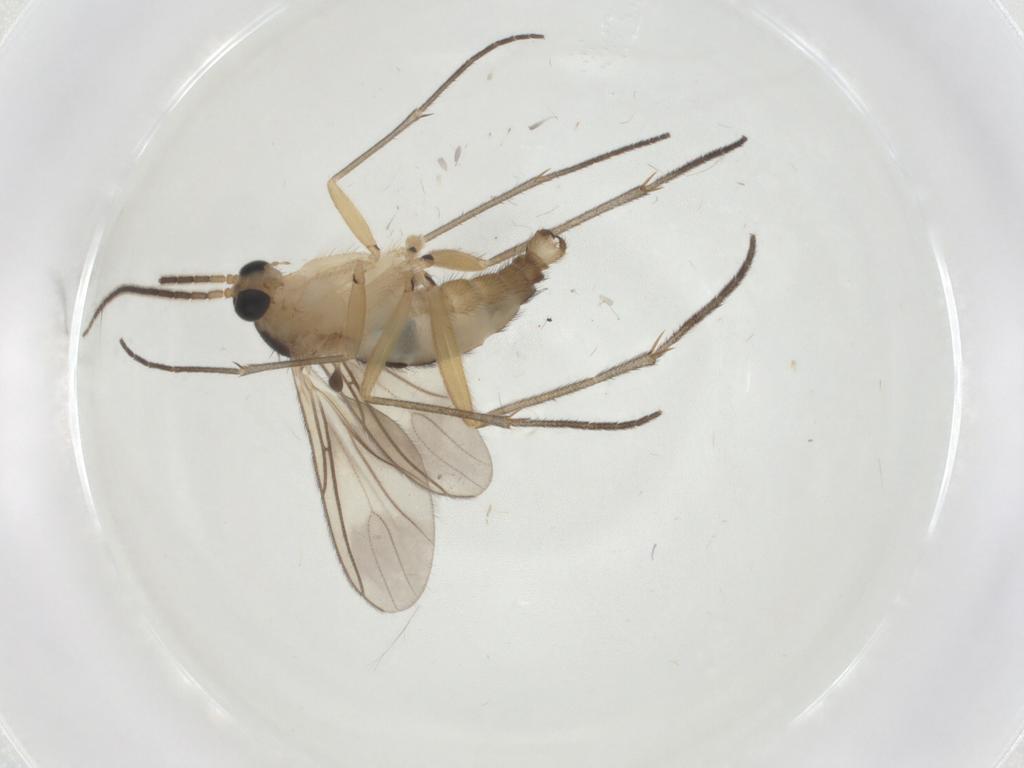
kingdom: Animalia
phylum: Arthropoda
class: Insecta
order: Diptera
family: Sciaridae
